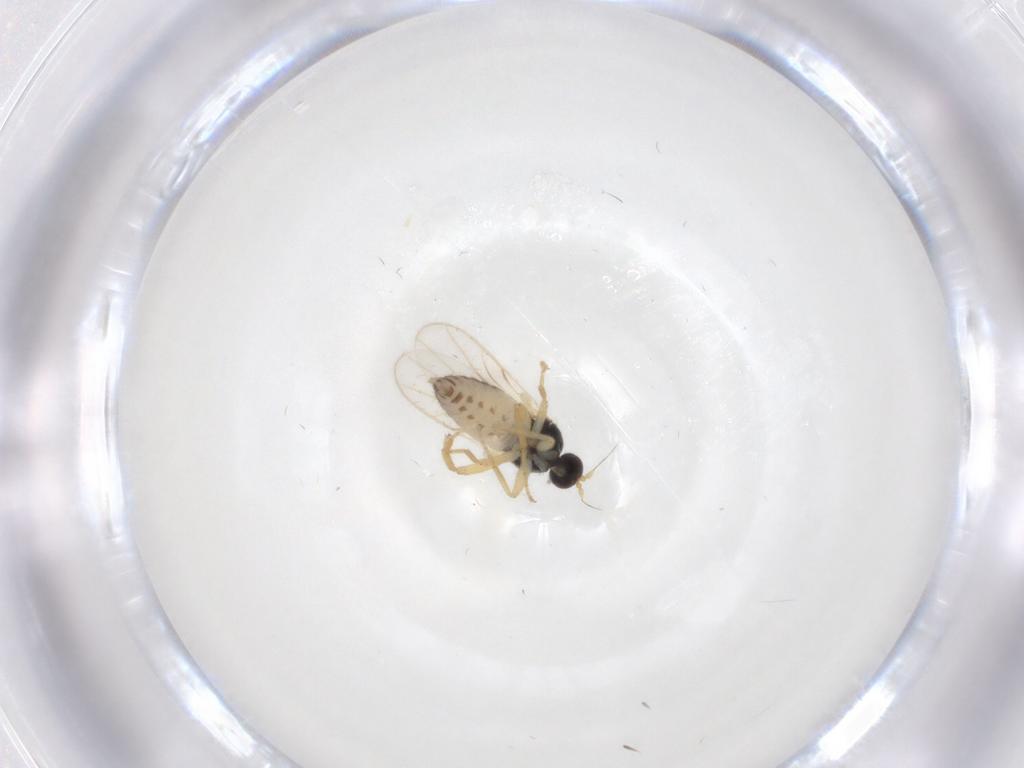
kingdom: Animalia
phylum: Arthropoda
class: Insecta
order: Diptera
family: Hybotidae
